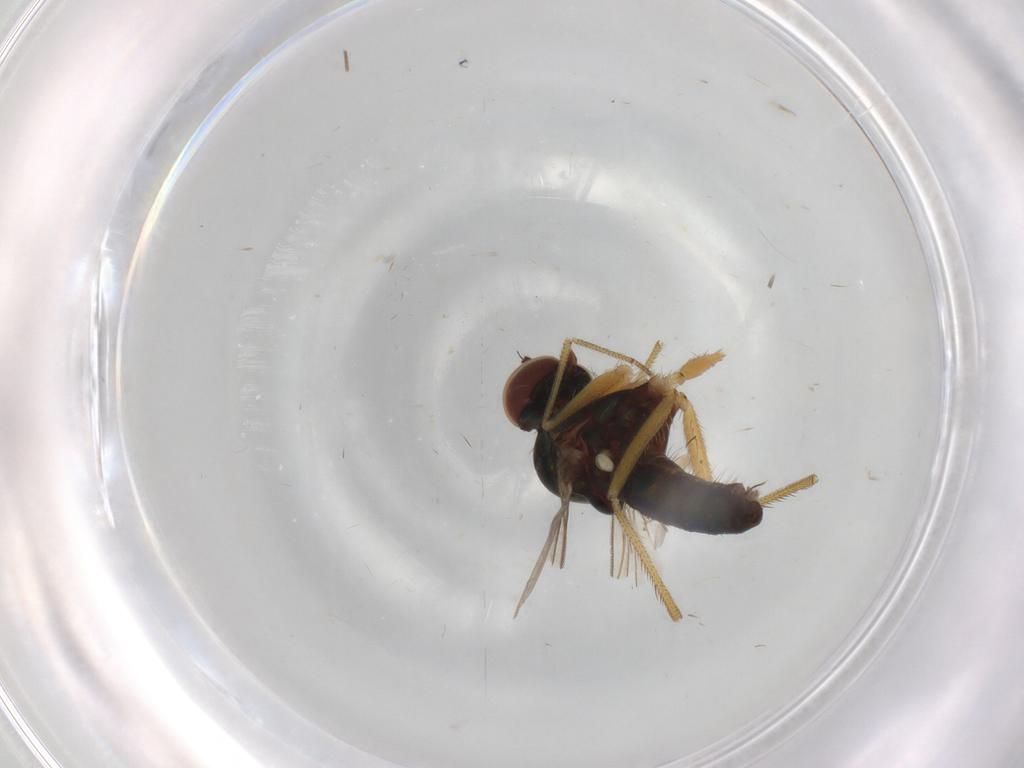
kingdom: Animalia
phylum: Arthropoda
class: Insecta
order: Diptera
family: Dolichopodidae
